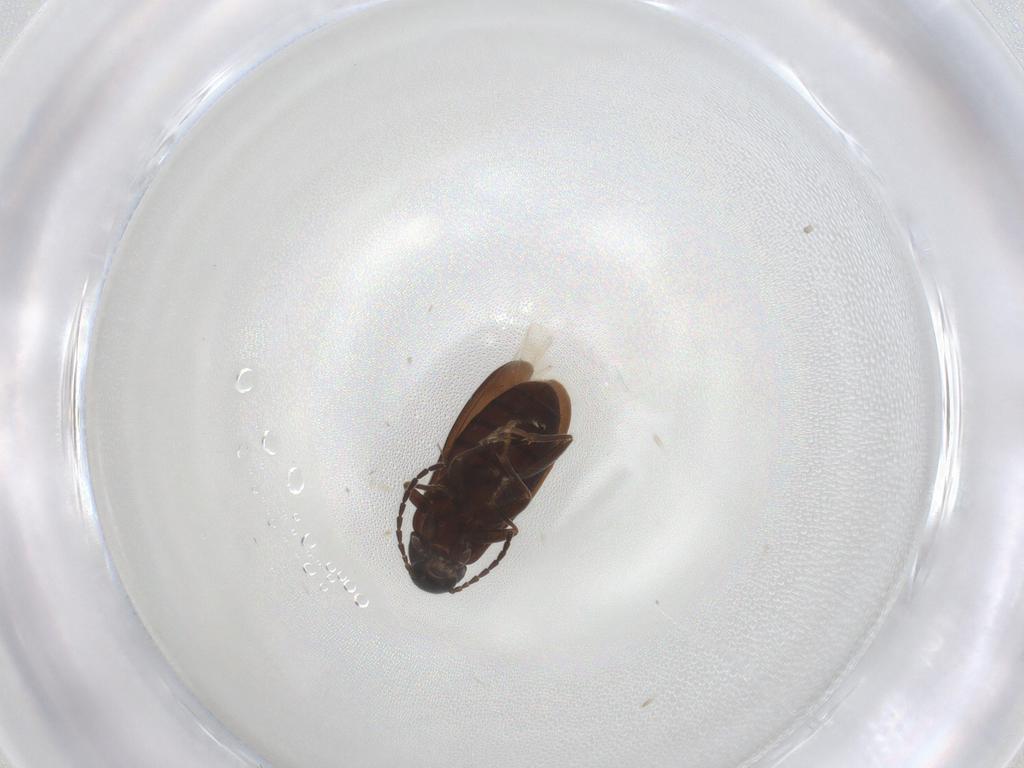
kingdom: Animalia
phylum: Arthropoda
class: Insecta
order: Coleoptera
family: Scraptiidae
